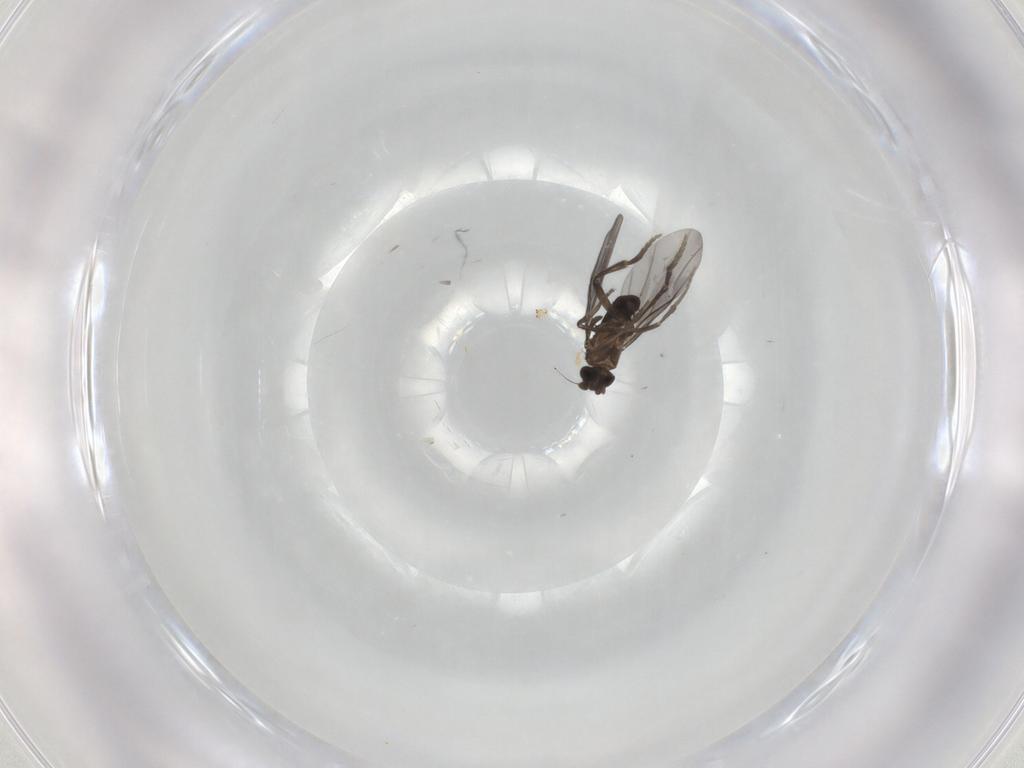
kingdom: Animalia
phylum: Arthropoda
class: Insecta
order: Diptera
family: Phoridae
